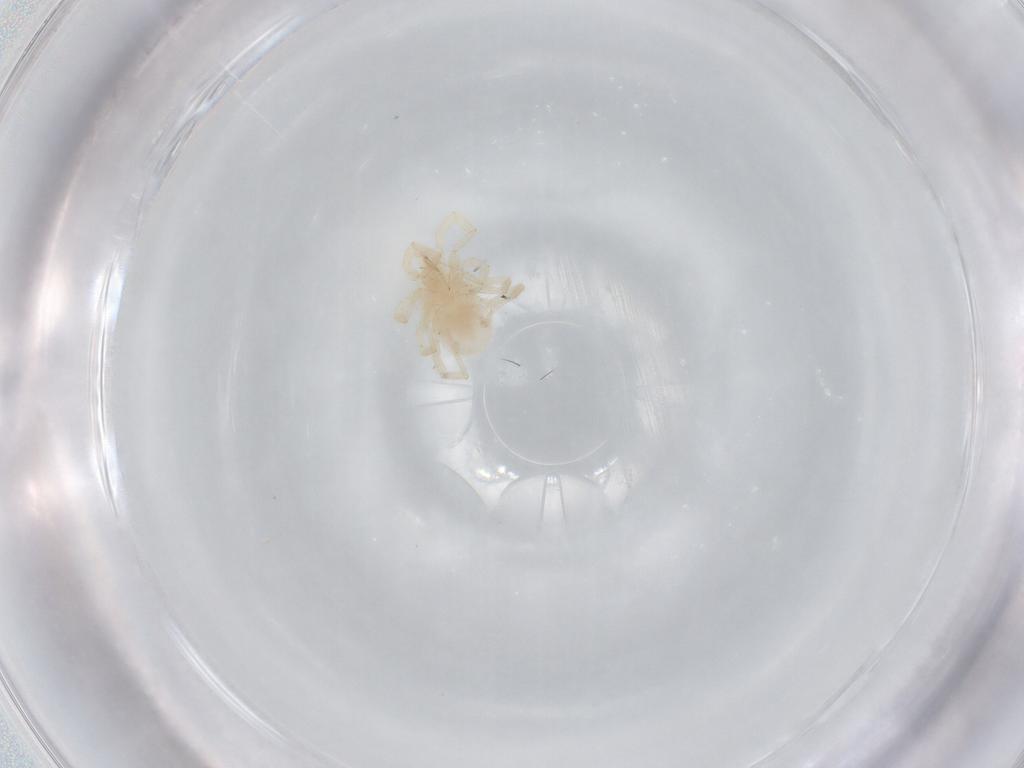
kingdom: Animalia
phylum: Arthropoda
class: Arachnida
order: Trombidiformes
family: Erythraeidae
